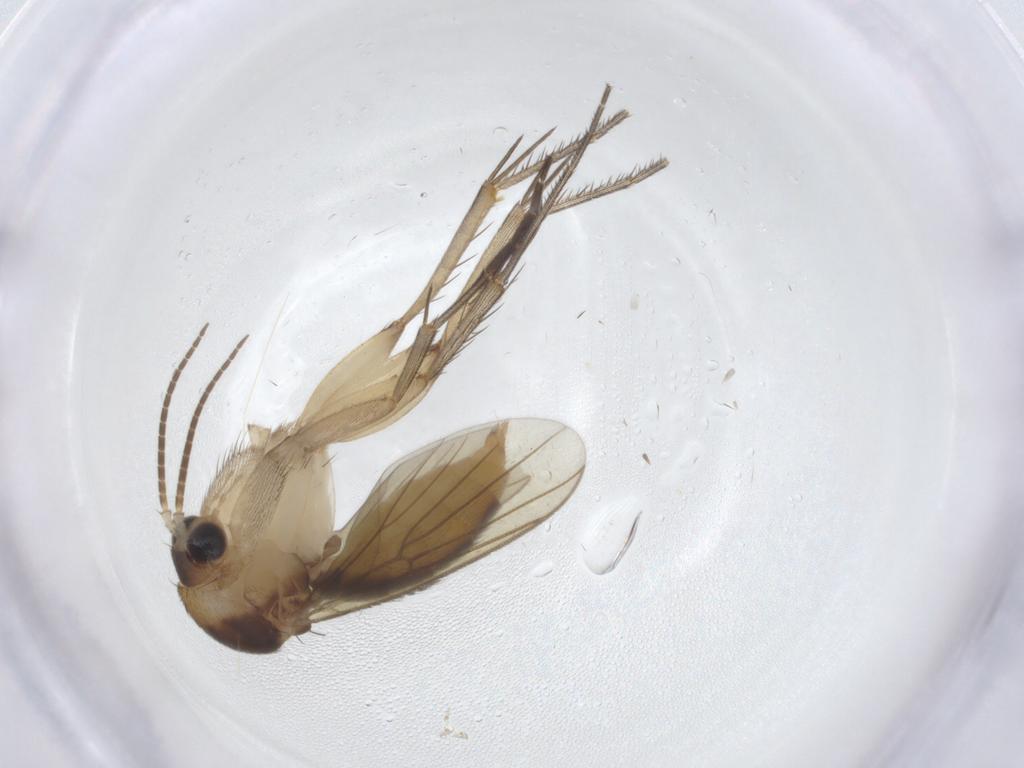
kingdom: Animalia
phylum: Arthropoda
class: Insecta
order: Diptera
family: Mycetophilidae
